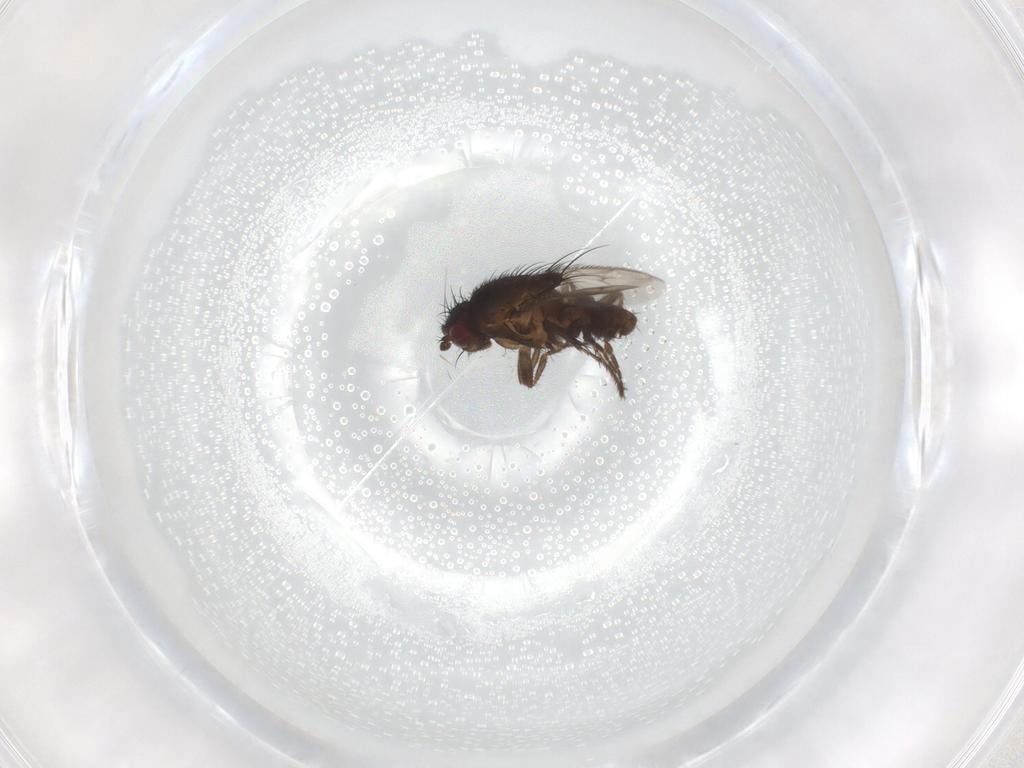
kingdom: Animalia
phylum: Arthropoda
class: Insecta
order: Diptera
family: Sphaeroceridae
